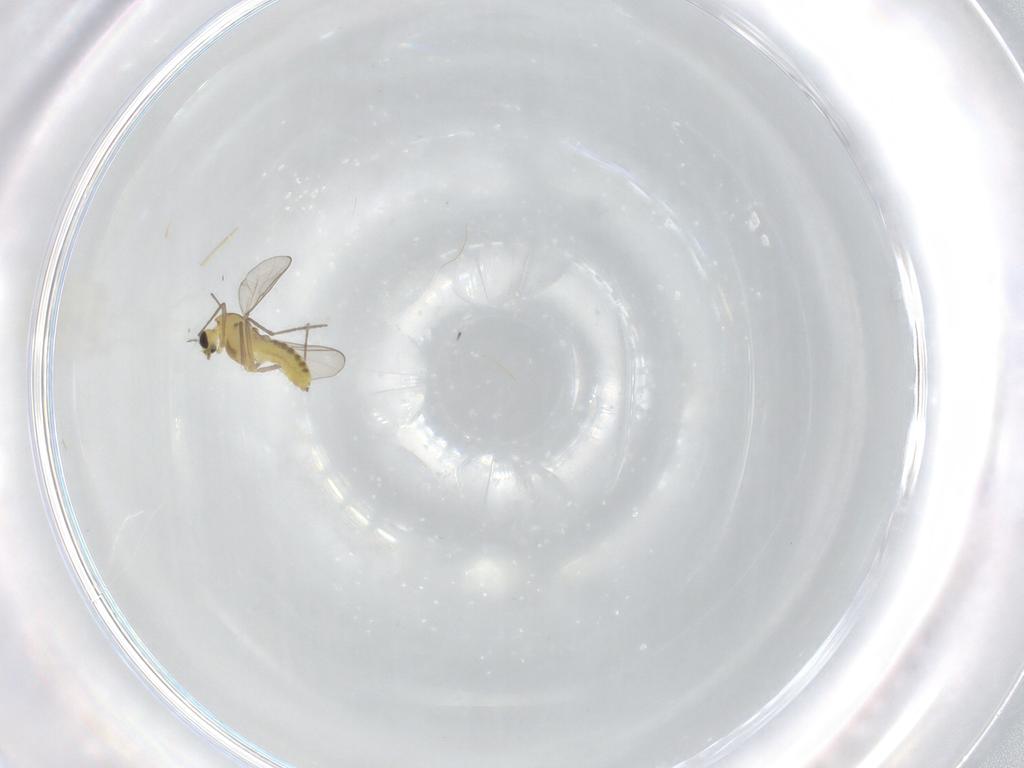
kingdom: Animalia
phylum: Arthropoda
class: Insecta
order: Diptera
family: Chironomidae
